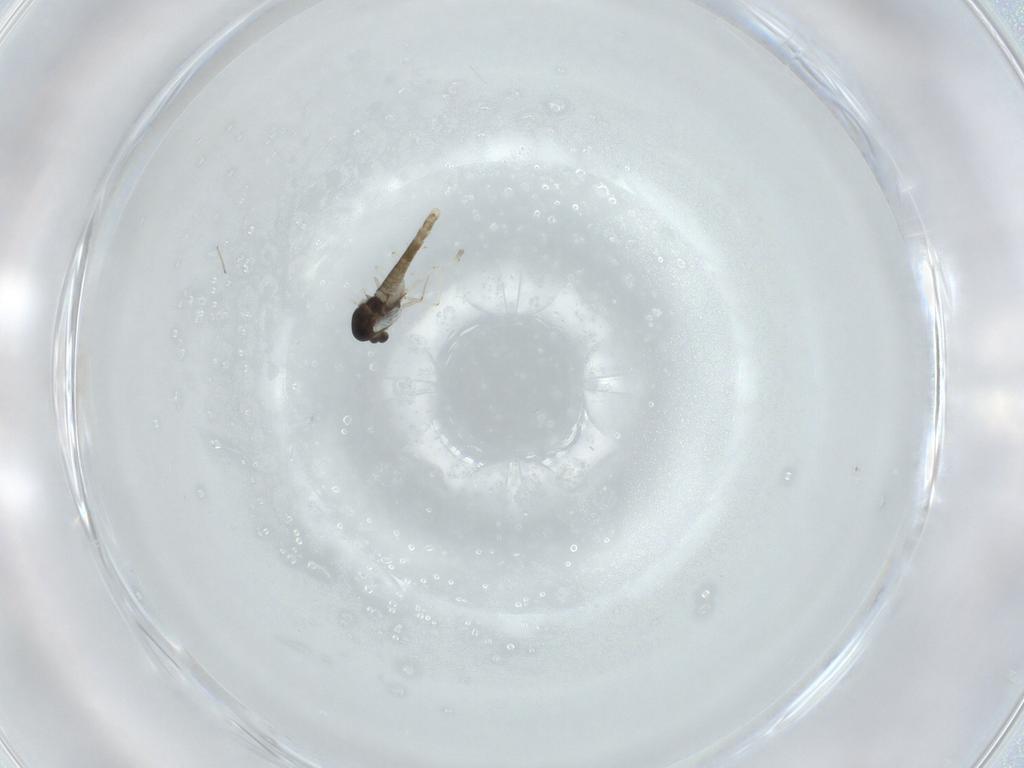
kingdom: Animalia
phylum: Arthropoda
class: Insecta
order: Diptera
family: Chironomidae
